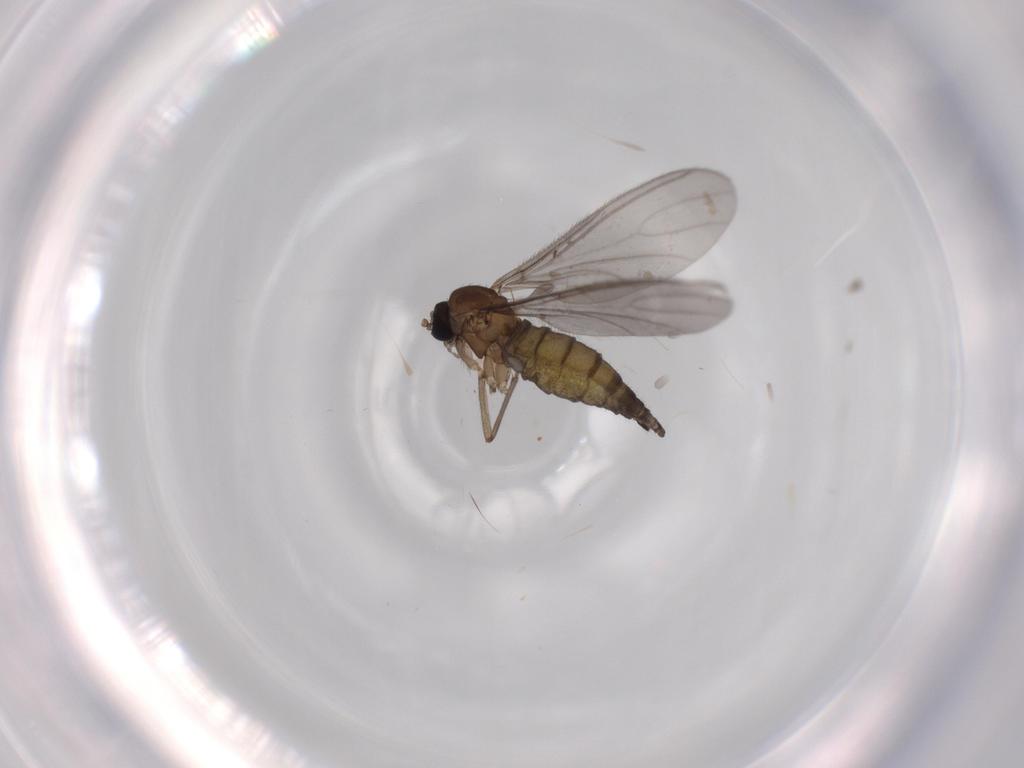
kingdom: Animalia
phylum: Arthropoda
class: Insecta
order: Diptera
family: Sciaridae
